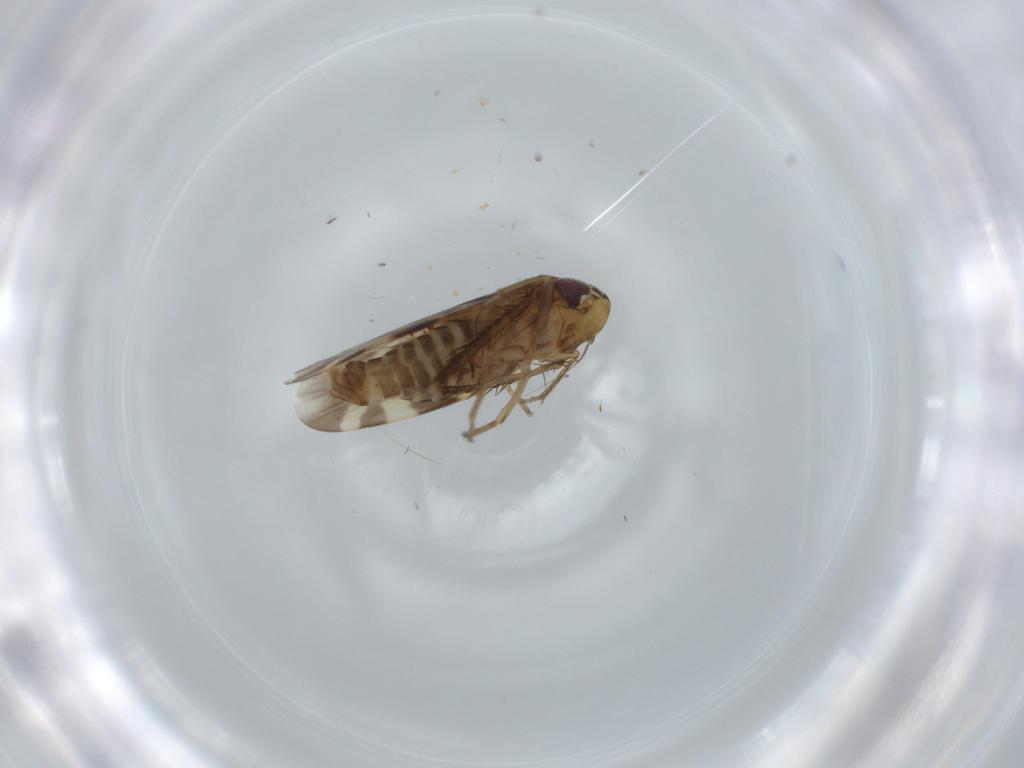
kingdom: Animalia
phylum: Arthropoda
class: Insecta
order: Hemiptera
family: Cicadellidae
